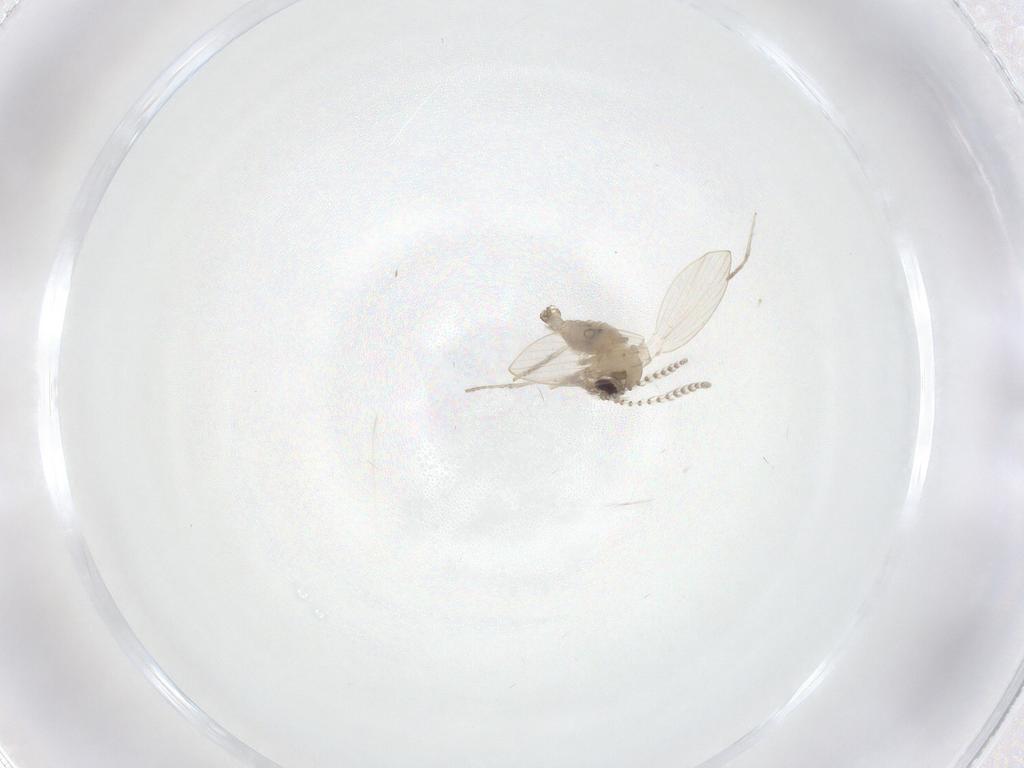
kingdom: Animalia
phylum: Arthropoda
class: Insecta
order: Diptera
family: Psychodidae
